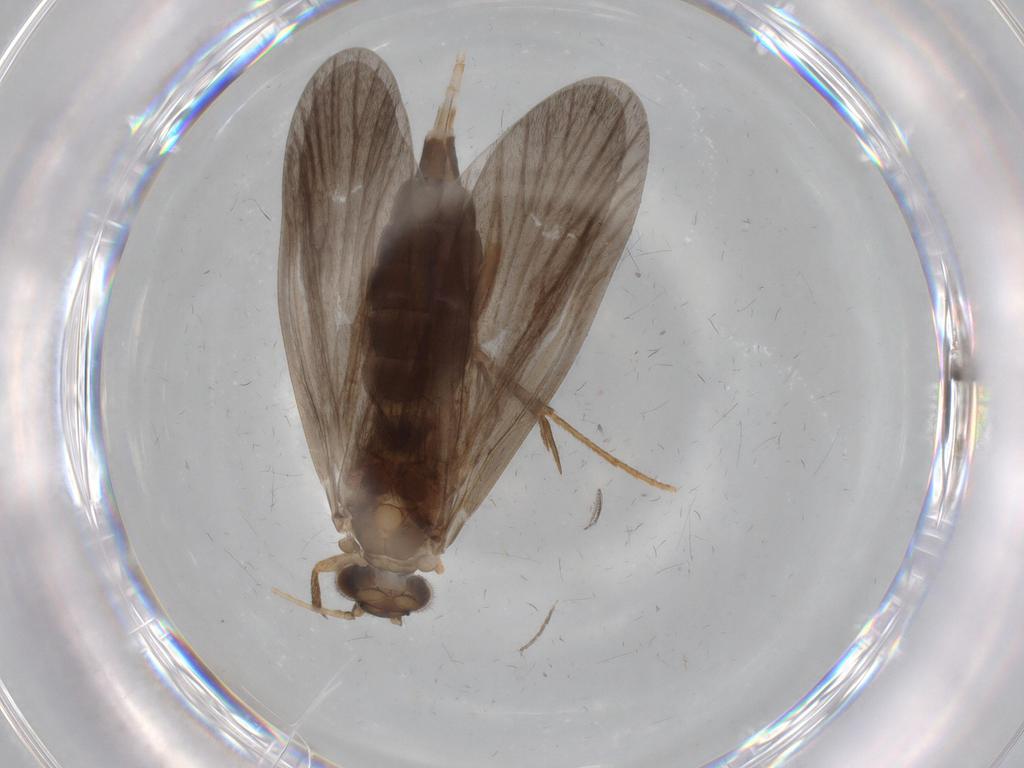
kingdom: Animalia
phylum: Arthropoda
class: Insecta
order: Trichoptera
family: Philopotamidae
